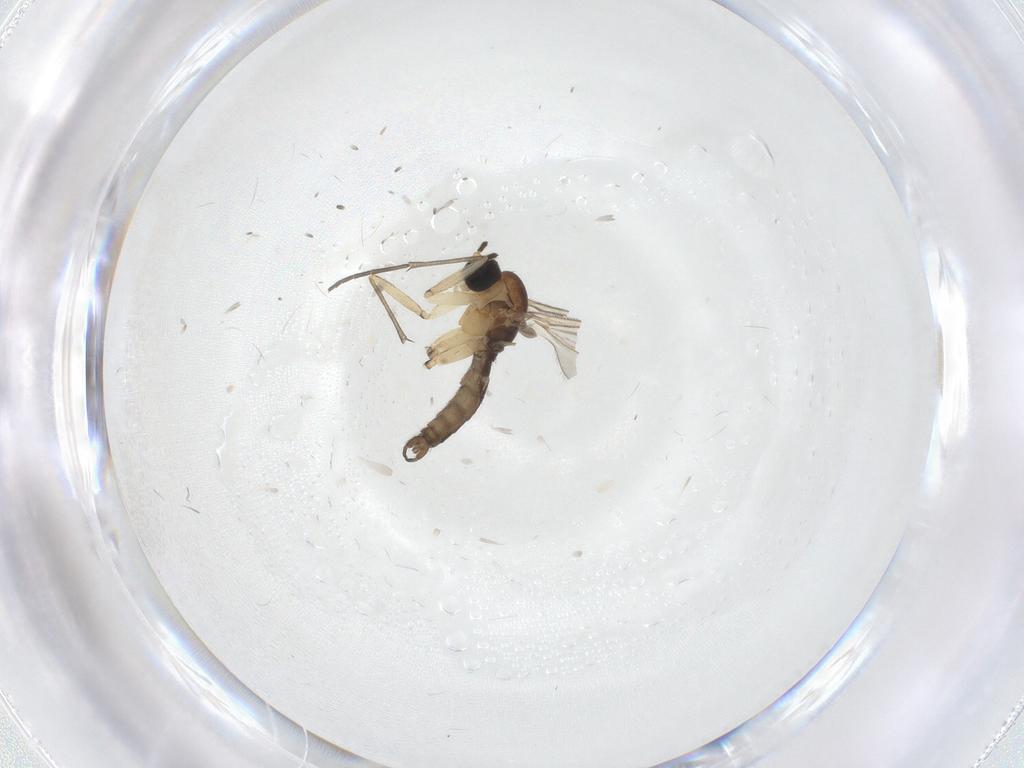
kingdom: Animalia
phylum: Arthropoda
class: Insecta
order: Diptera
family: Sciaridae
